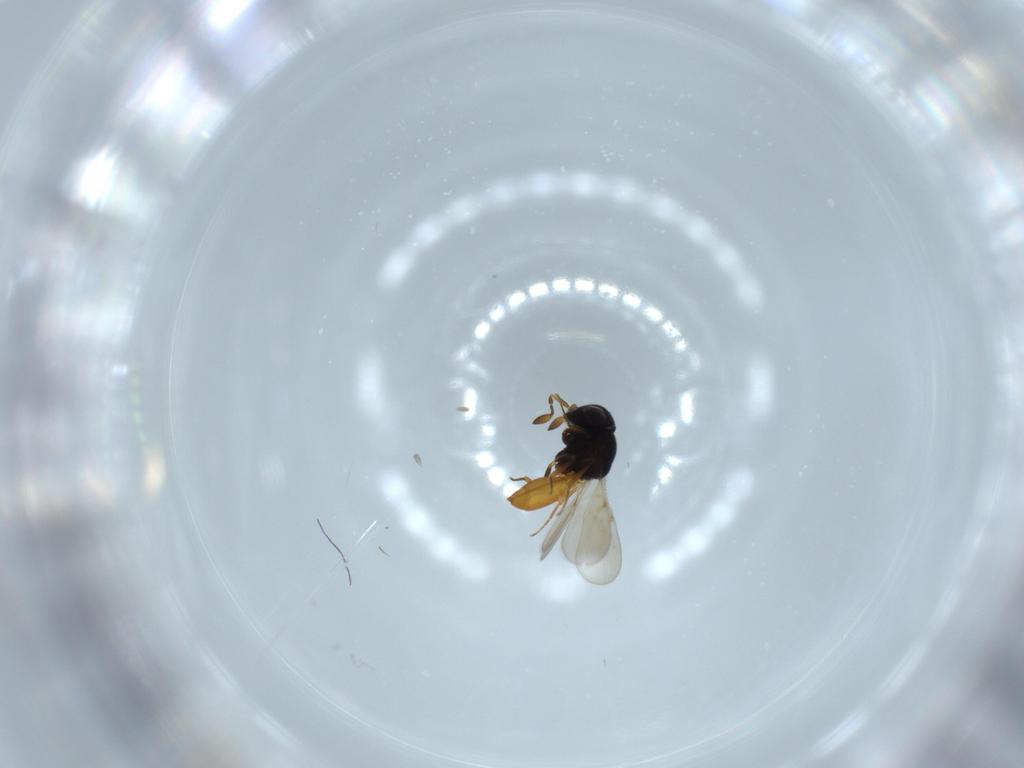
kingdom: Animalia
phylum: Arthropoda
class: Insecta
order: Hymenoptera
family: Scelionidae
